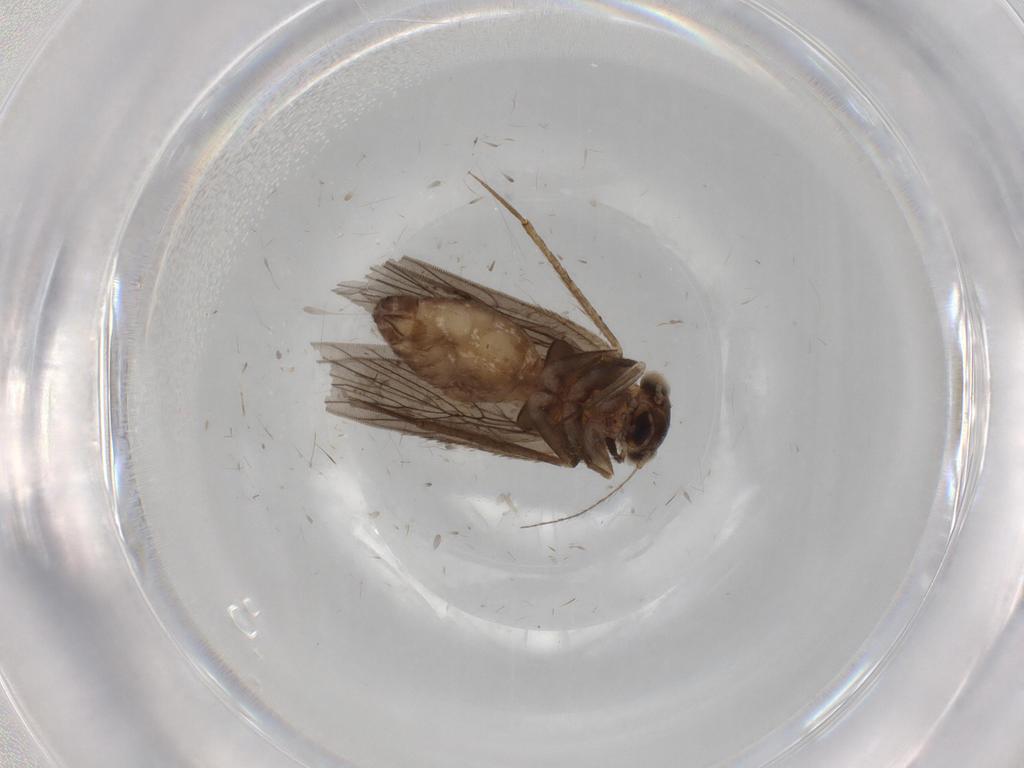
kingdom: Animalia
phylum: Arthropoda
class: Insecta
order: Psocodea
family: Lepidopsocidae
